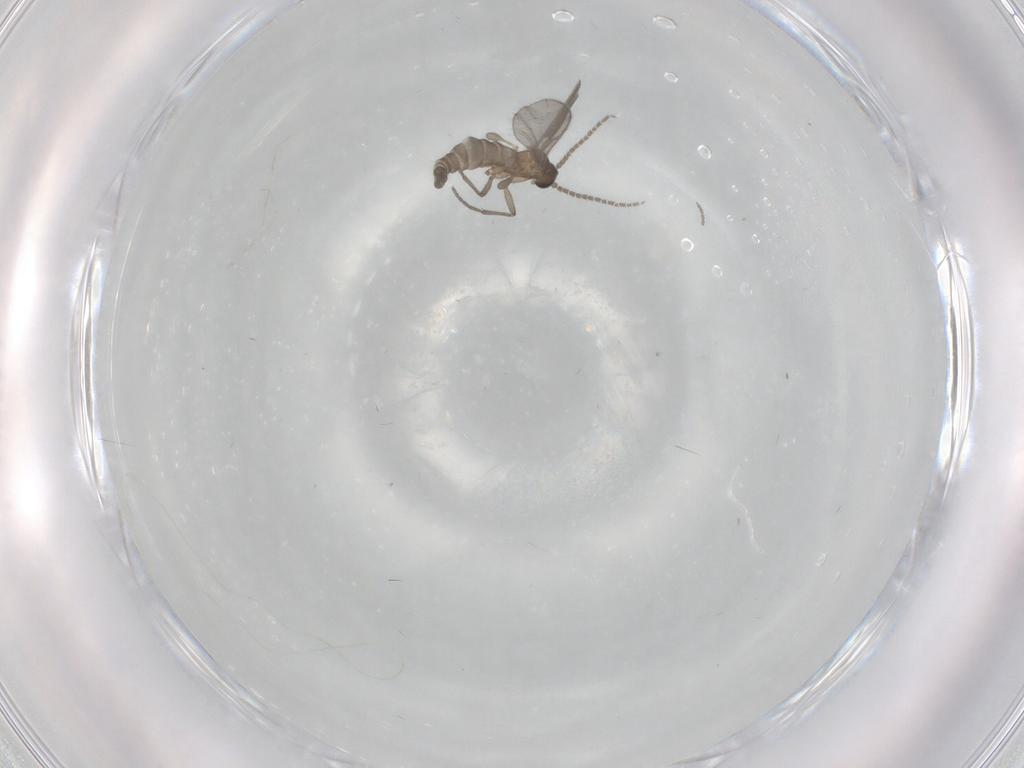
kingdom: Animalia
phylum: Arthropoda
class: Insecta
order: Diptera
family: Sciaridae
